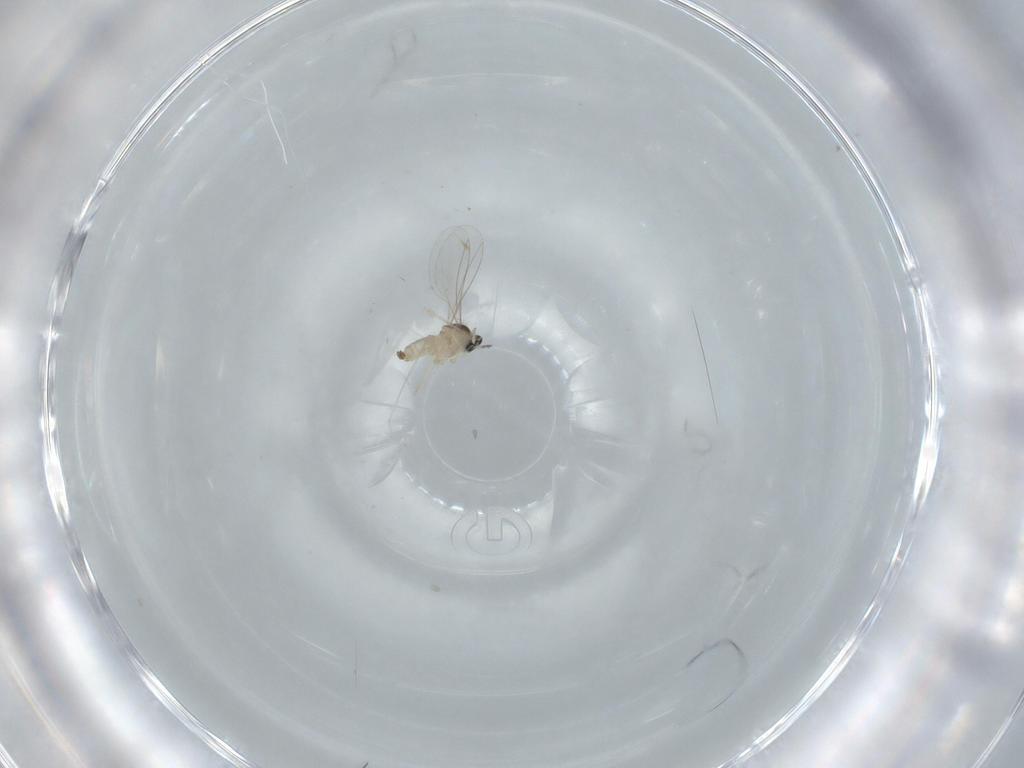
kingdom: Animalia
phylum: Arthropoda
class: Insecta
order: Diptera
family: Cecidomyiidae
